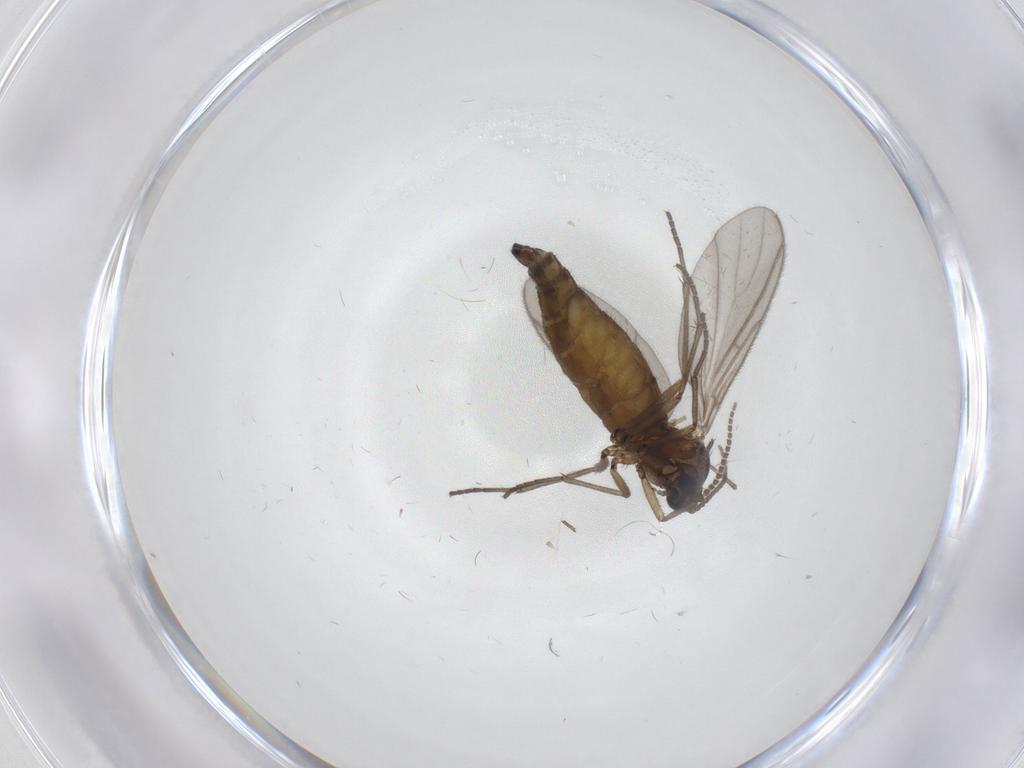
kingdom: Animalia
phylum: Arthropoda
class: Insecta
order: Diptera
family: Sciaridae
